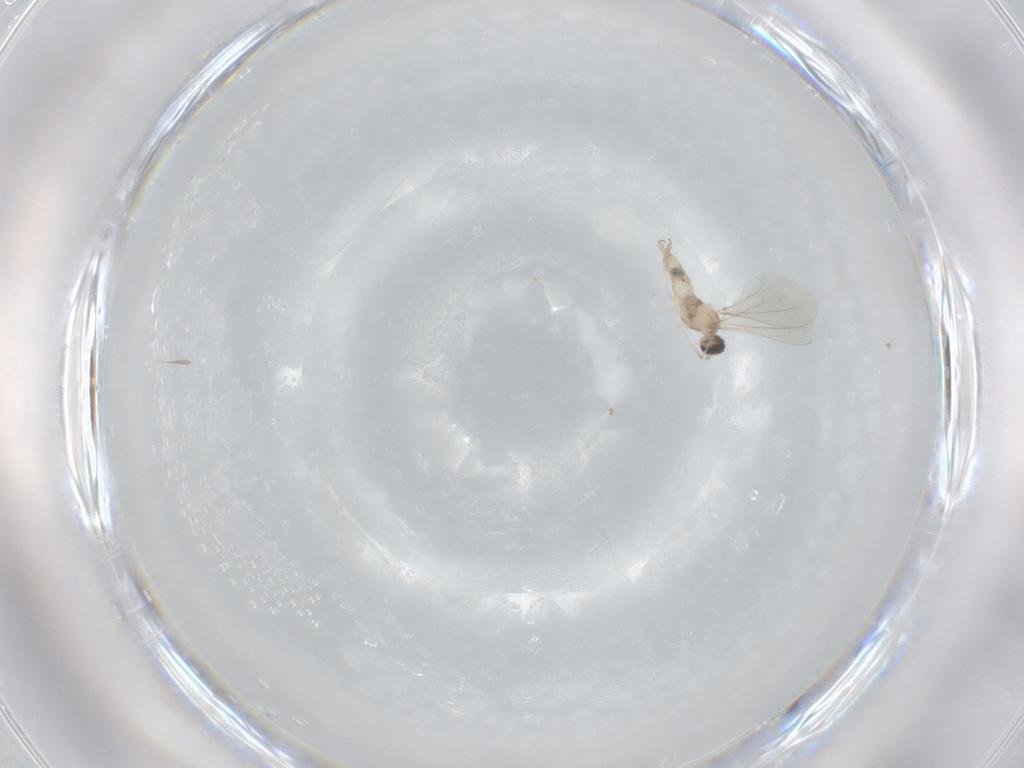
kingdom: Animalia
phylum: Arthropoda
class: Insecta
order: Diptera
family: Cecidomyiidae
